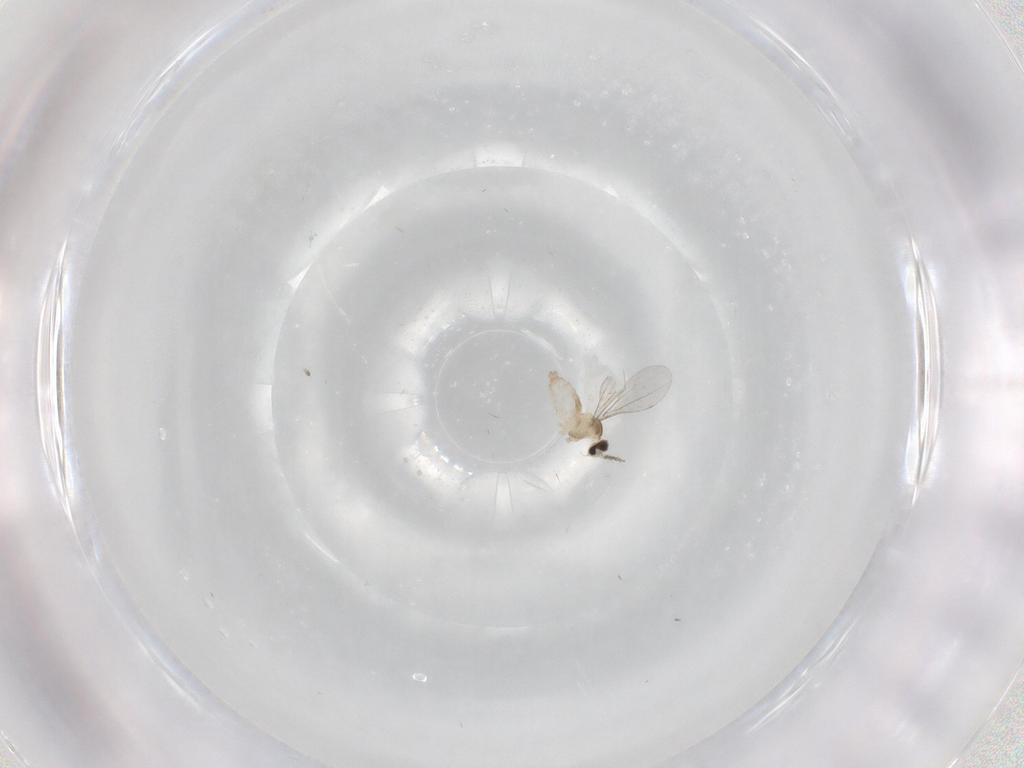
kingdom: Animalia
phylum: Arthropoda
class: Insecta
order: Diptera
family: Cecidomyiidae
